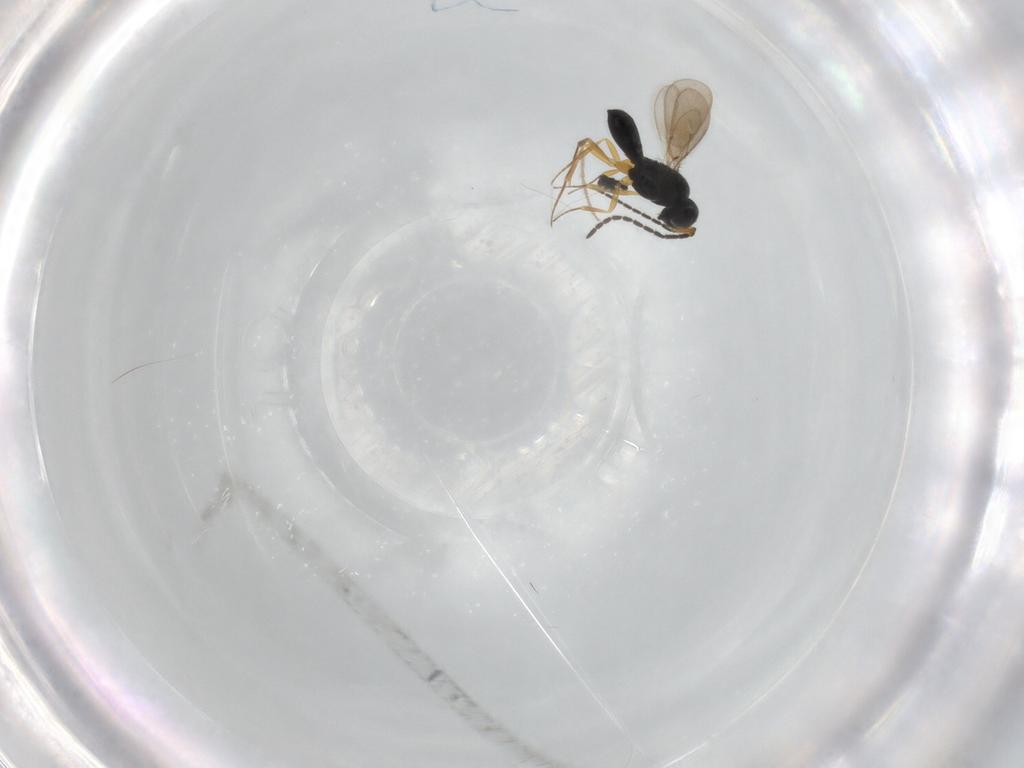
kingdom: Animalia
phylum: Arthropoda
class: Insecta
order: Hymenoptera
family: Scelionidae
